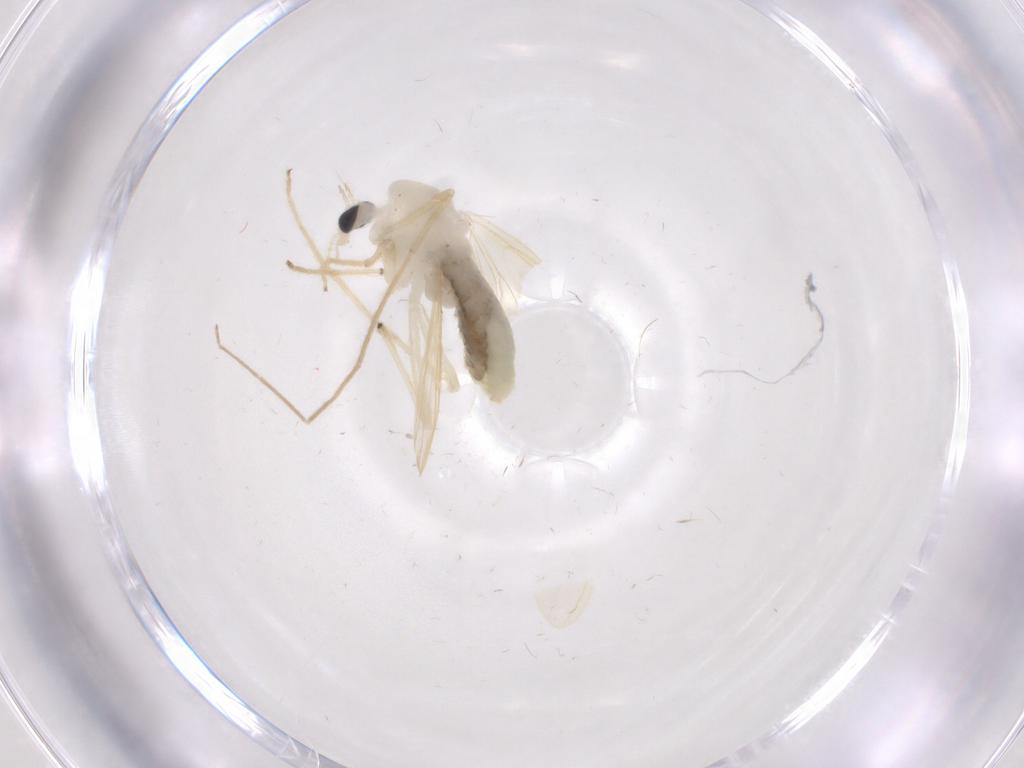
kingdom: Animalia
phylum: Arthropoda
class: Insecta
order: Diptera
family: Chironomidae
